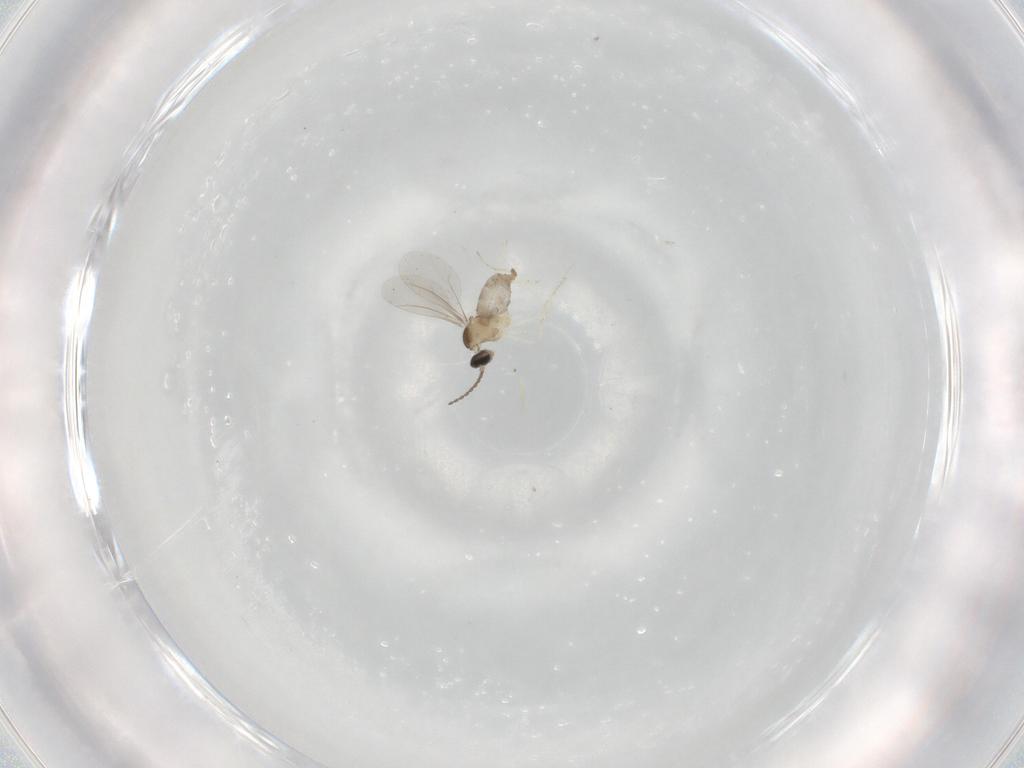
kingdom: Animalia
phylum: Arthropoda
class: Insecta
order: Diptera
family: Cecidomyiidae
